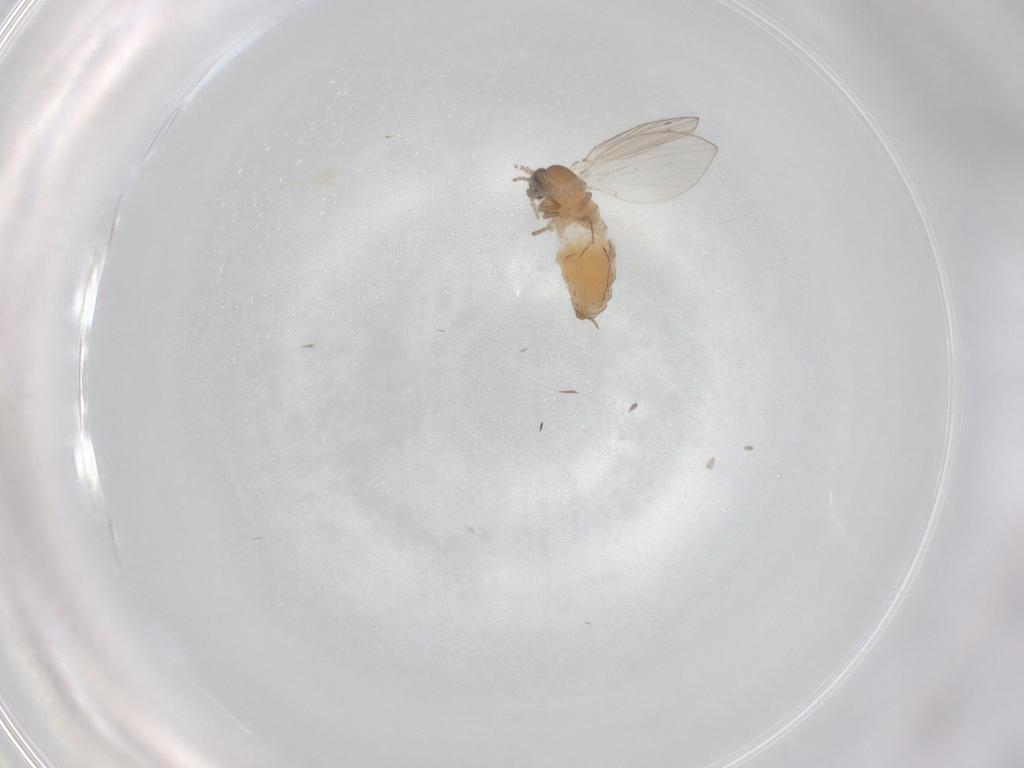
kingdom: Animalia
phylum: Arthropoda
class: Insecta
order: Diptera
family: Psychodidae
